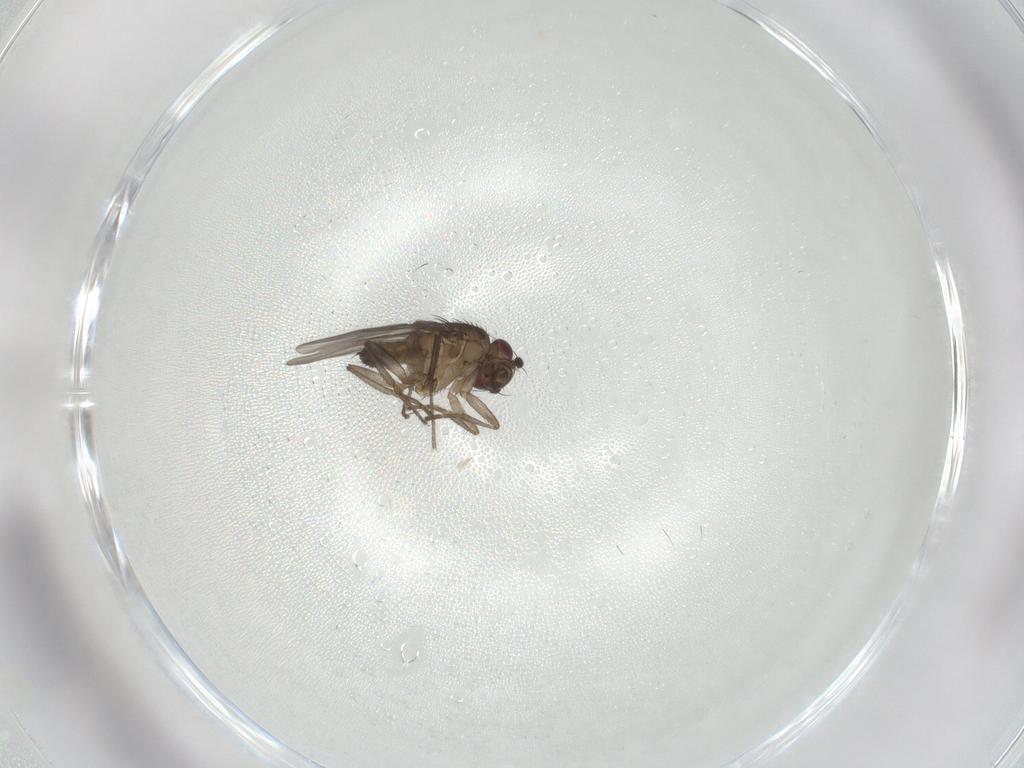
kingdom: Animalia
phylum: Arthropoda
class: Insecta
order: Diptera
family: Sphaeroceridae
